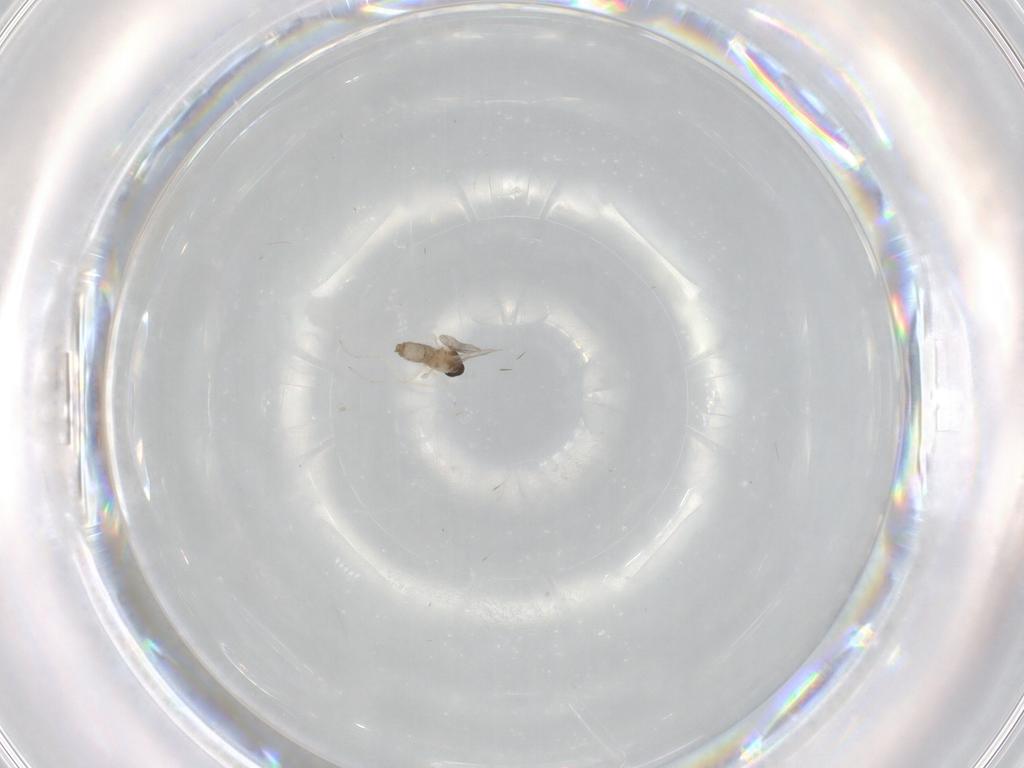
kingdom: Animalia
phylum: Arthropoda
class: Insecta
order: Diptera
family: Cecidomyiidae
